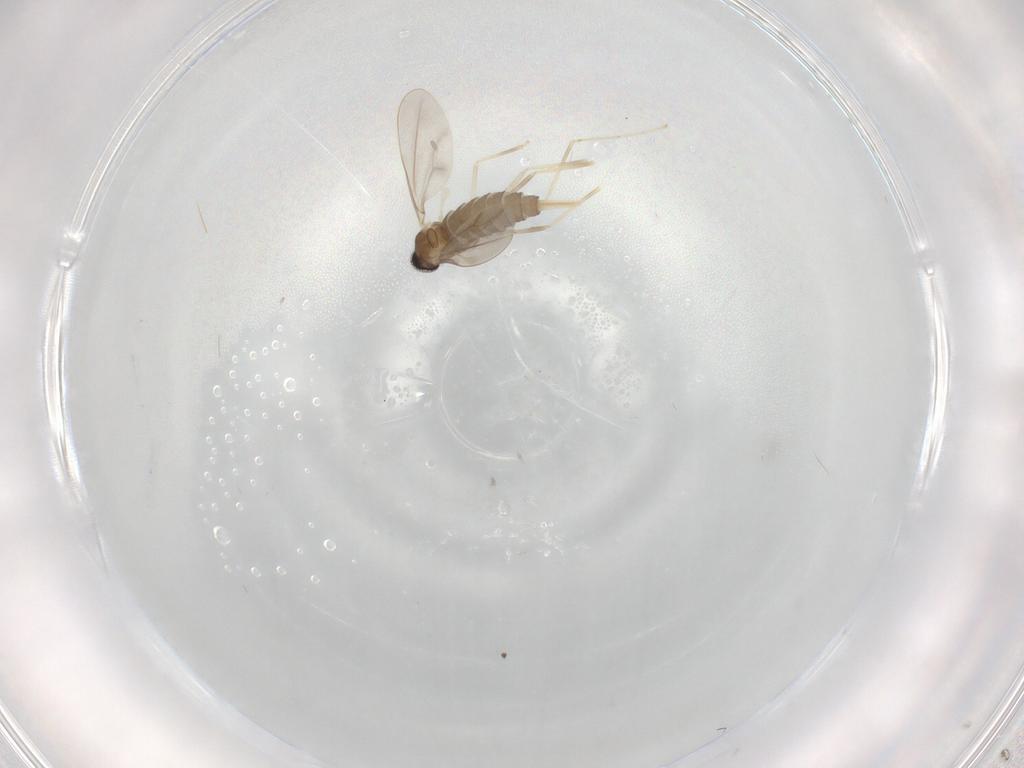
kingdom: Animalia
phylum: Arthropoda
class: Insecta
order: Diptera
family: Cecidomyiidae
